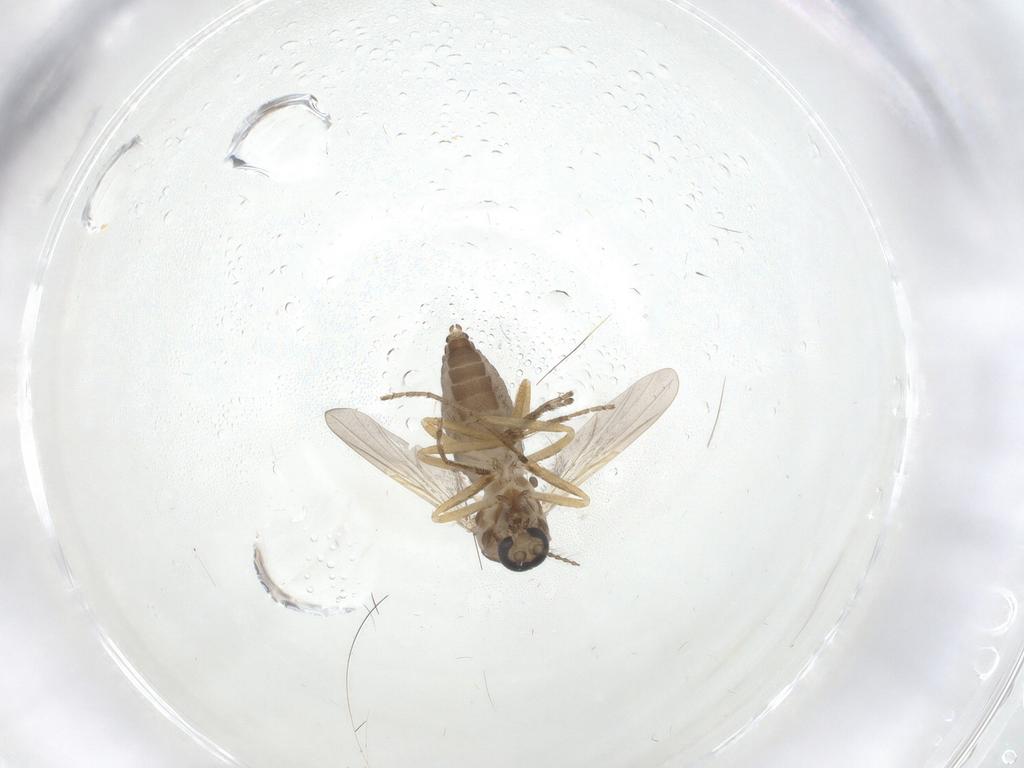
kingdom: Animalia
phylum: Arthropoda
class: Insecta
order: Diptera
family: Ceratopogonidae
